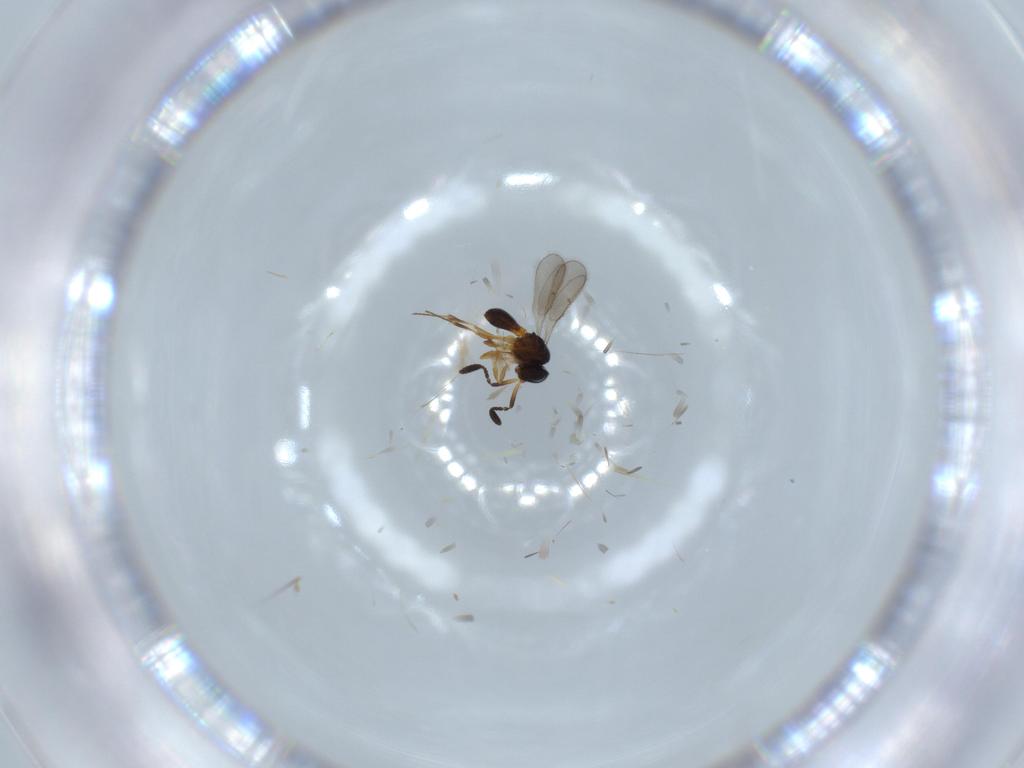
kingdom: Animalia
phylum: Arthropoda
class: Insecta
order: Hymenoptera
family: Scelionidae
